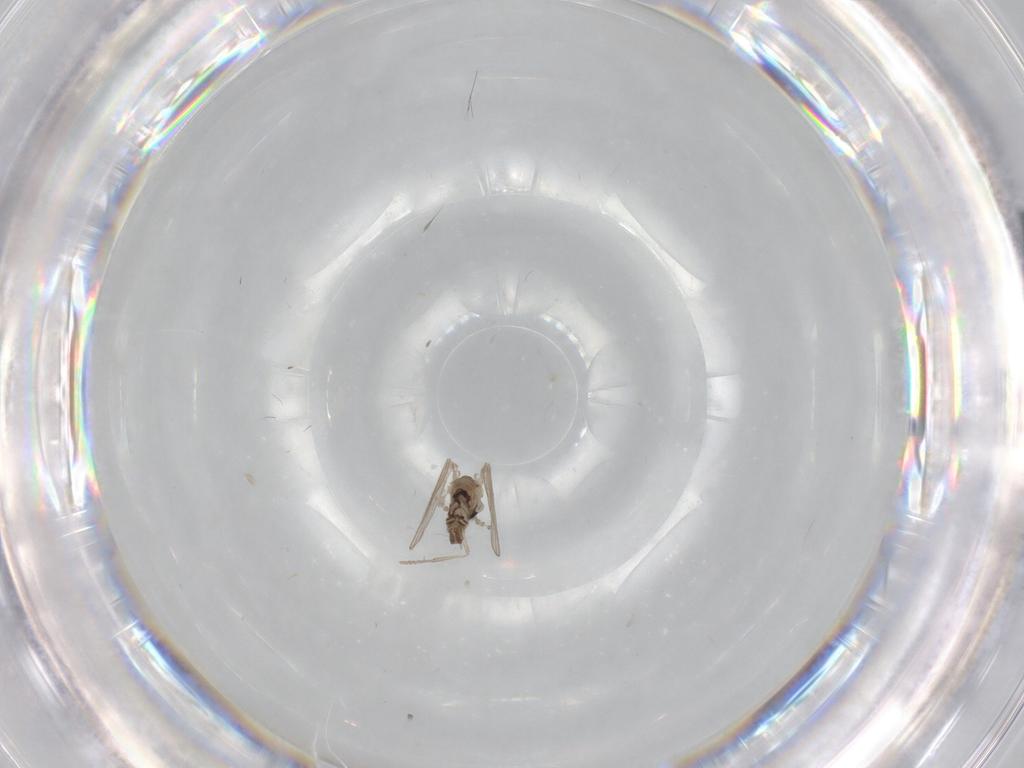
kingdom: Animalia
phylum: Arthropoda
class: Insecta
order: Diptera
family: Psychodidae
